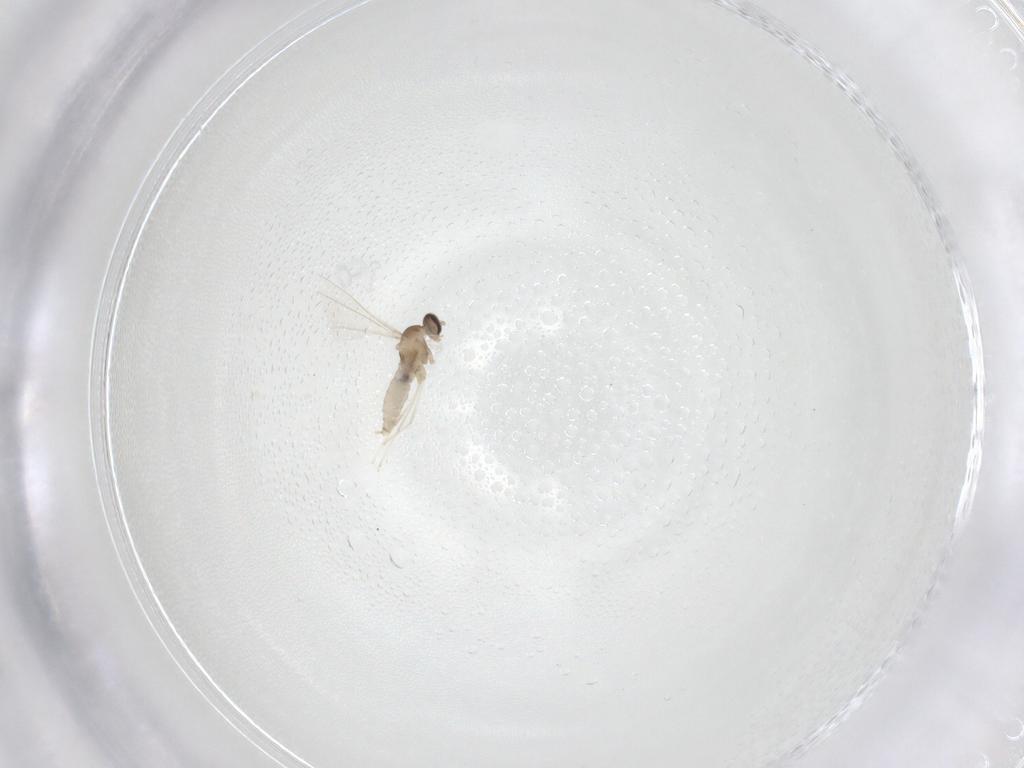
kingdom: Animalia
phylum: Arthropoda
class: Insecta
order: Diptera
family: Cecidomyiidae
